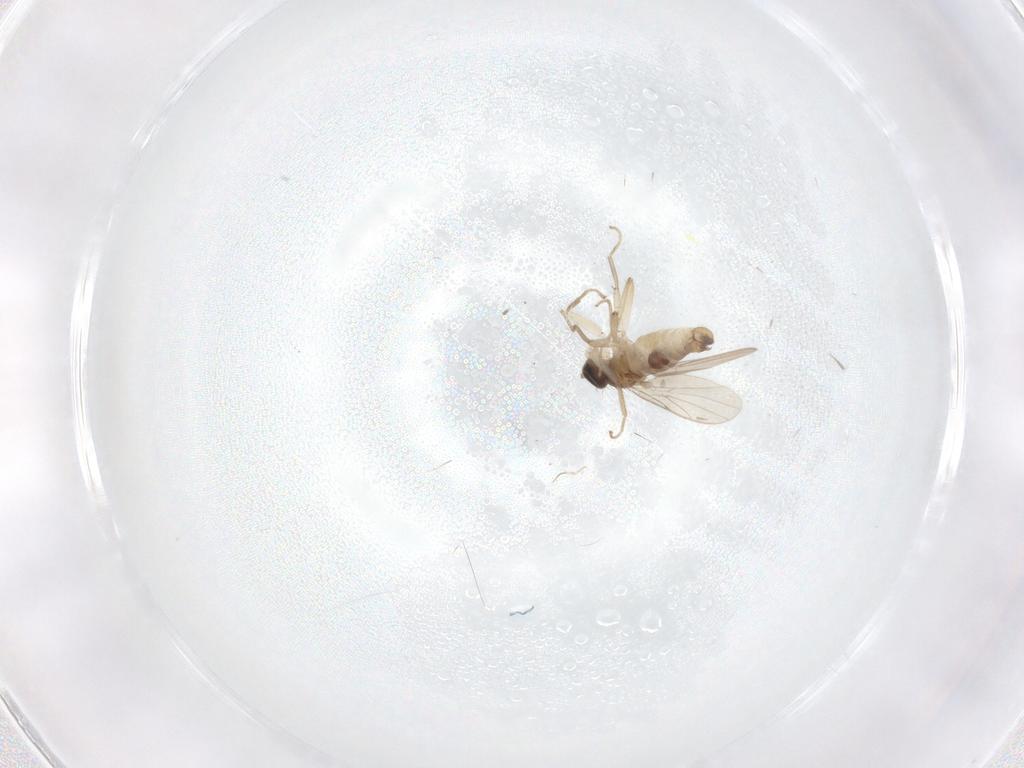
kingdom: Animalia
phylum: Arthropoda
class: Insecta
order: Diptera
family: Hybotidae
